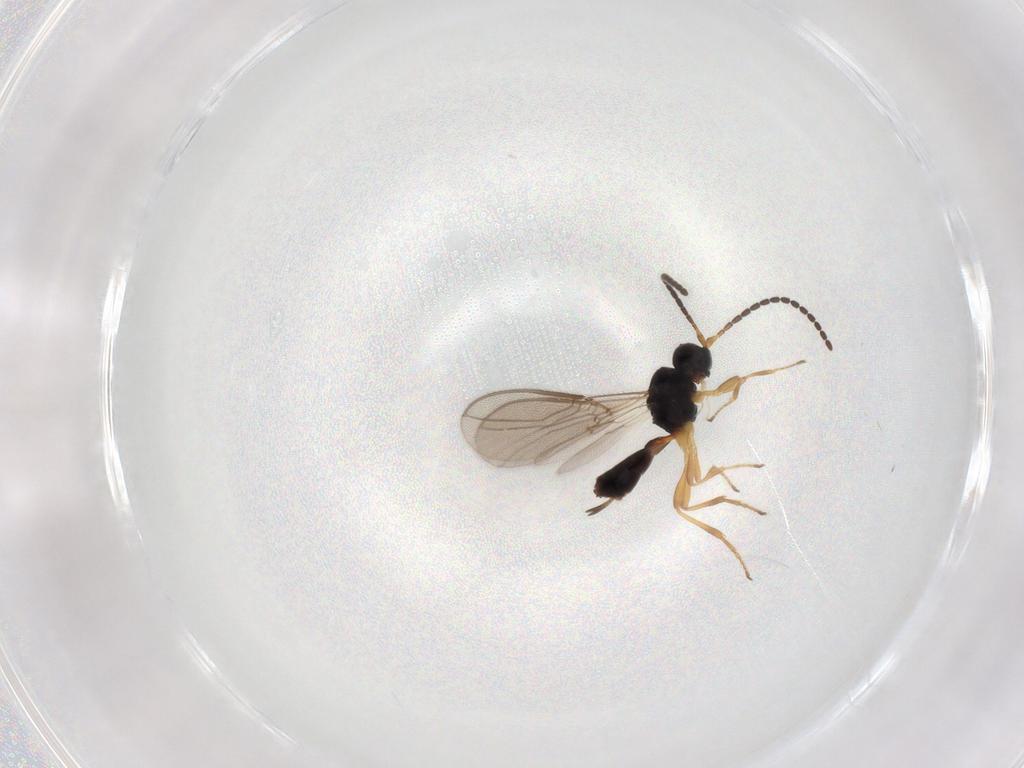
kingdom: Animalia
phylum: Arthropoda
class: Insecta
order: Hymenoptera
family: Braconidae
